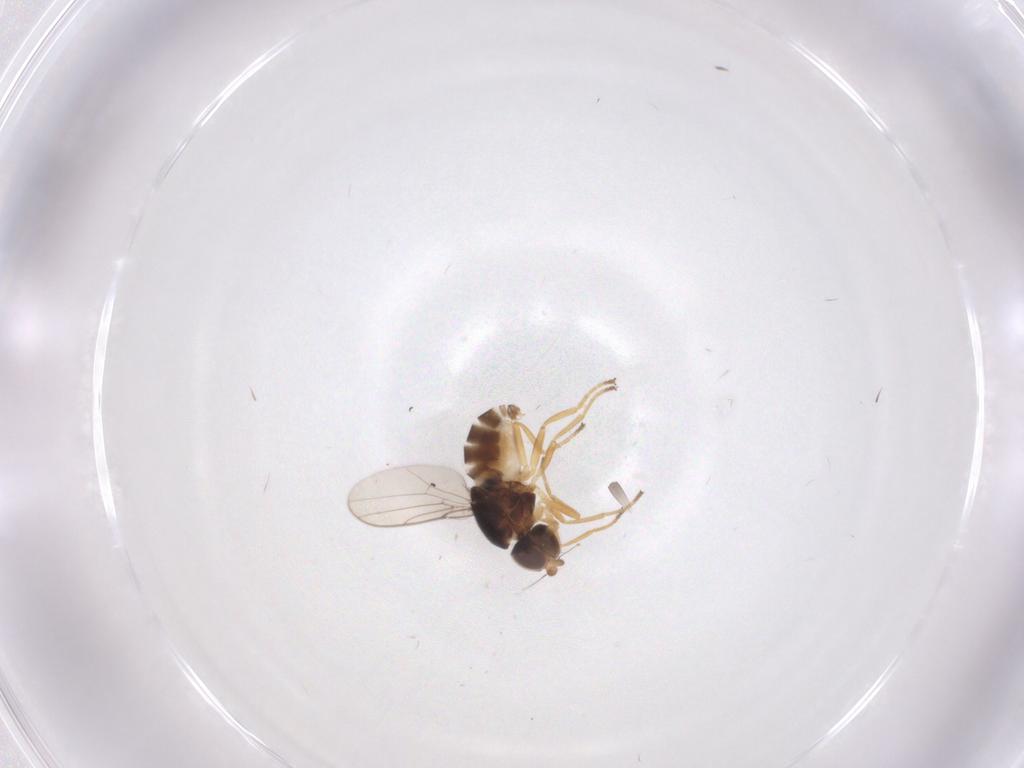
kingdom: Animalia
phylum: Arthropoda
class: Insecta
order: Diptera
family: Chloropidae
